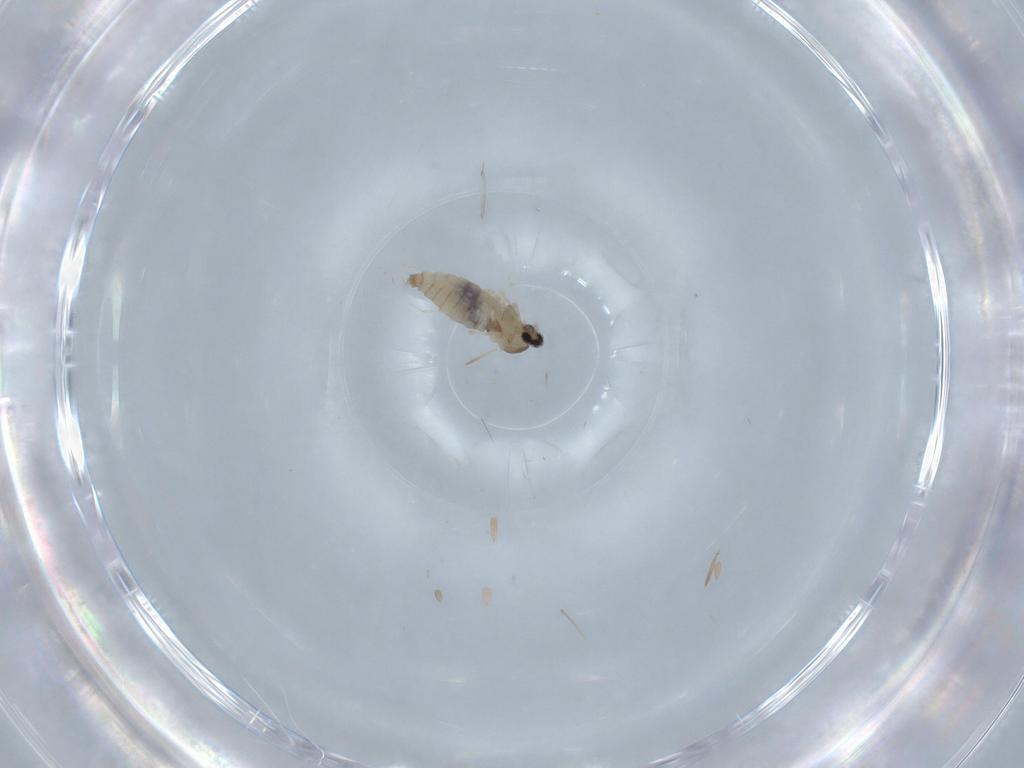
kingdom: Animalia
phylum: Arthropoda
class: Insecta
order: Diptera
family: Cecidomyiidae
